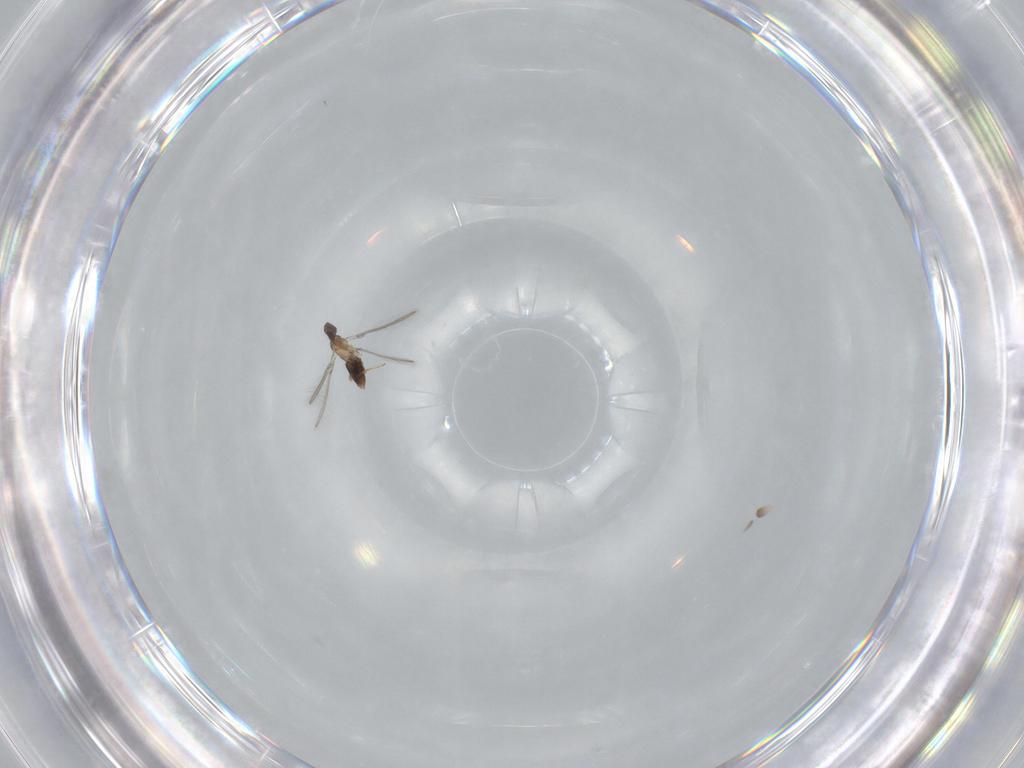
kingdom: Animalia
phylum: Arthropoda
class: Insecta
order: Hymenoptera
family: Mymaridae
